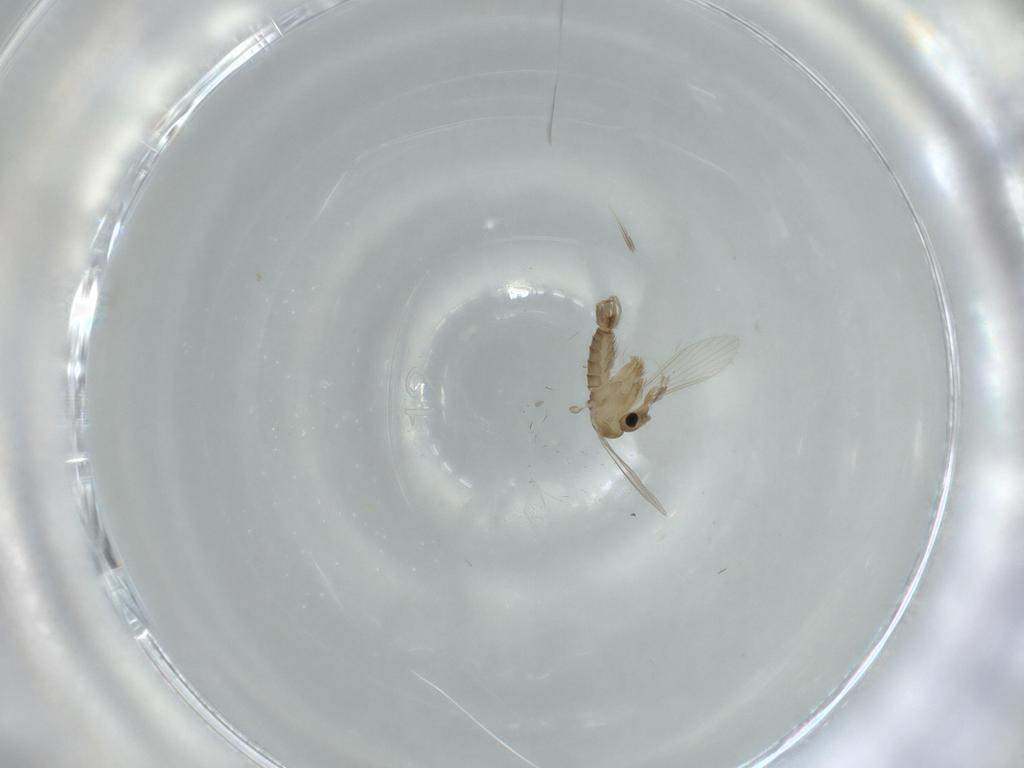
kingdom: Animalia
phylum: Arthropoda
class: Insecta
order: Diptera
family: Psychodidae
